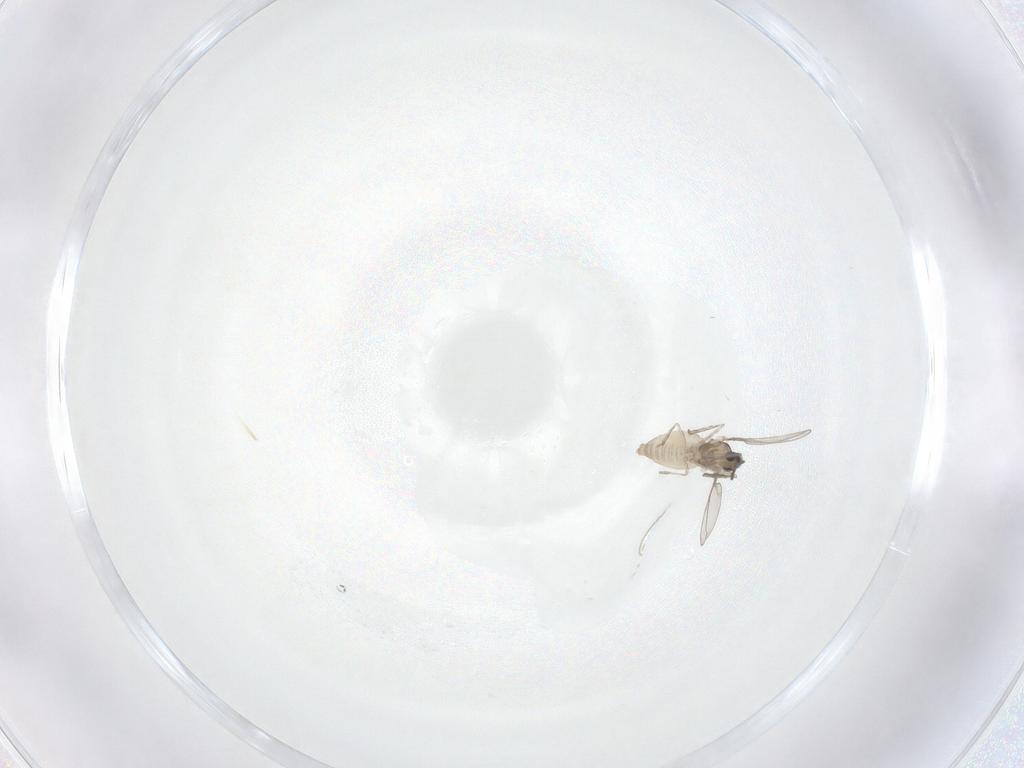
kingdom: Animalia
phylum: Arthropoda
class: Insecta
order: Diptera
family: Cecidomyiidae
